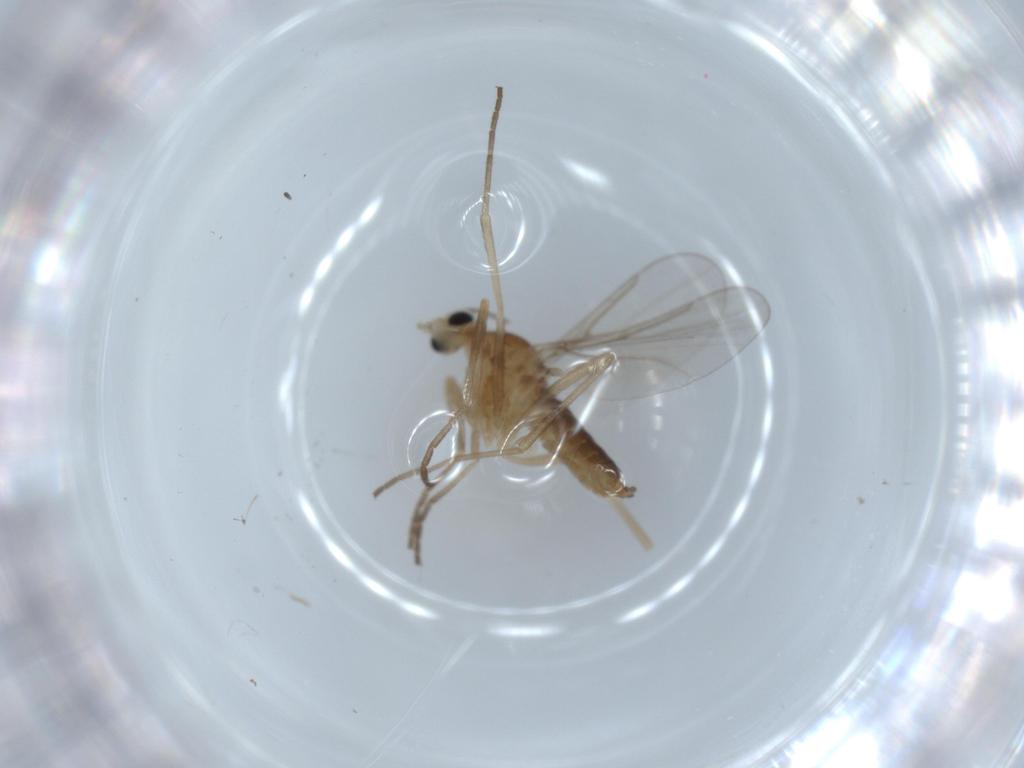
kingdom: Animalia
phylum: Arthropoda
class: Insecta
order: Diptera
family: Cecidomyiidae
